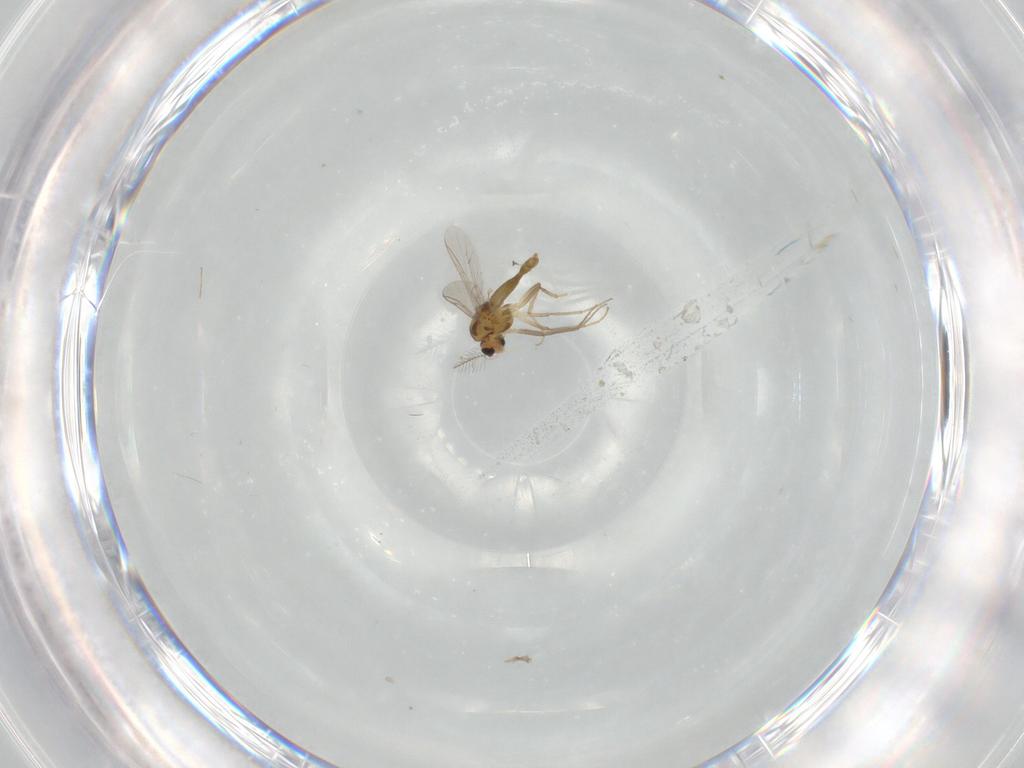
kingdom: Animalia
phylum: Arthropoda
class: Insecta
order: Diptera
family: Chironomidae
